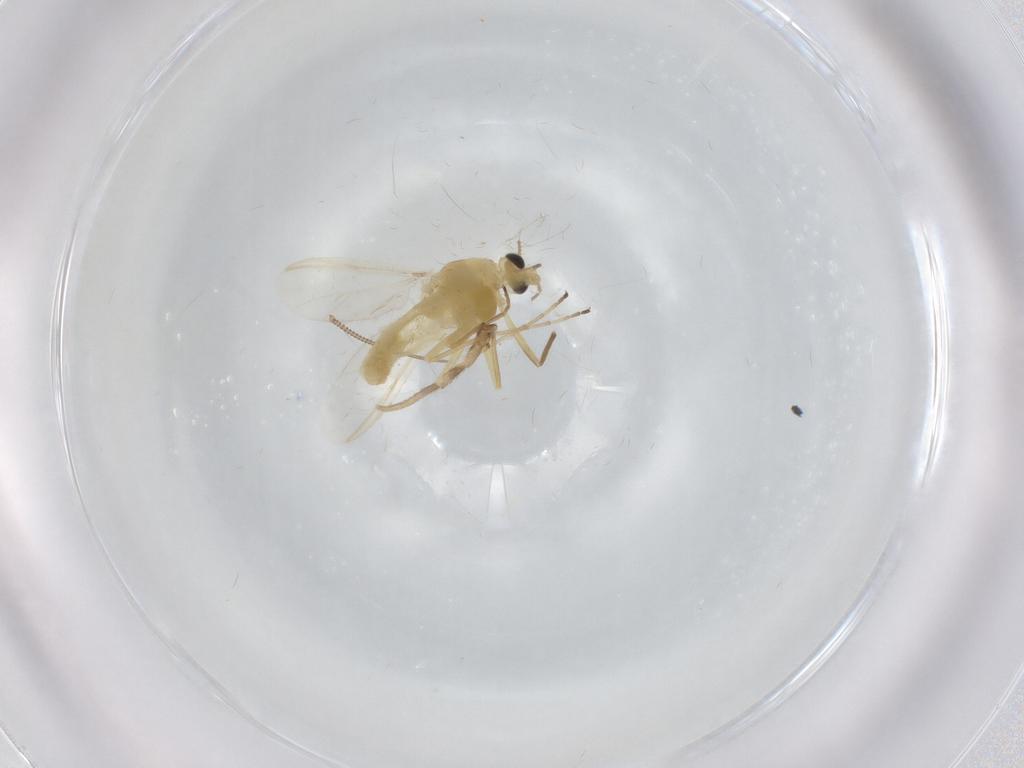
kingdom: Animalia
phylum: Arthropoda
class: Insecta
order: Diptera
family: Chironomidae
